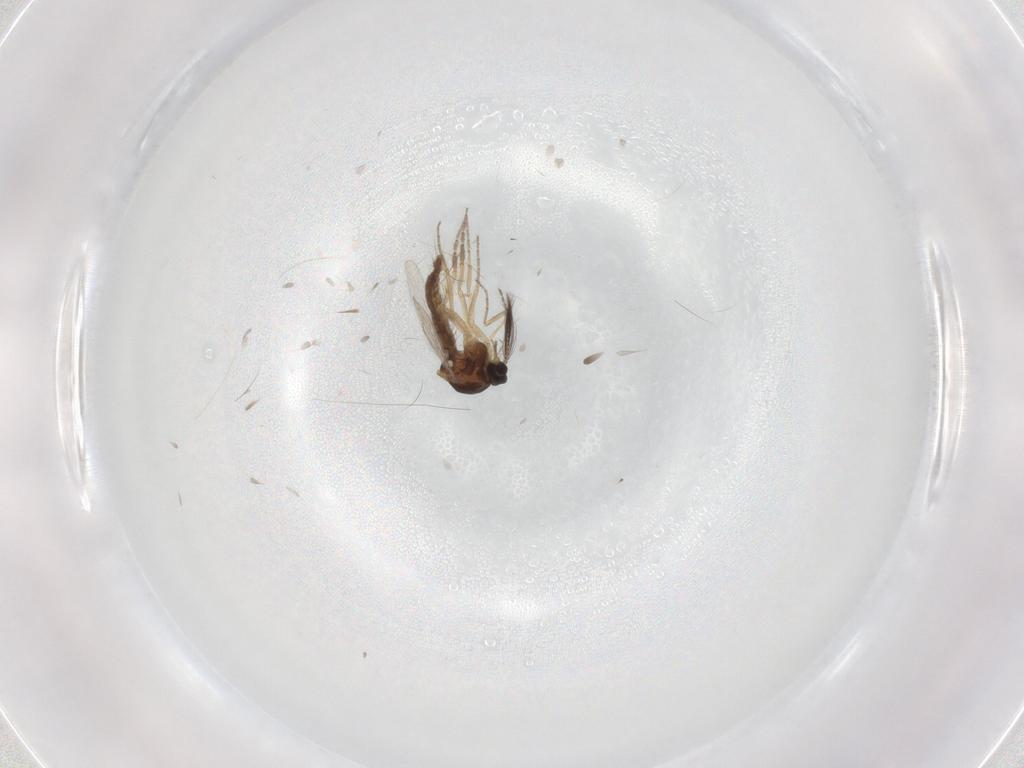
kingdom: Animalia
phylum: Arthropoda
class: Insecta
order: Diptera
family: Ceratopogonidae
